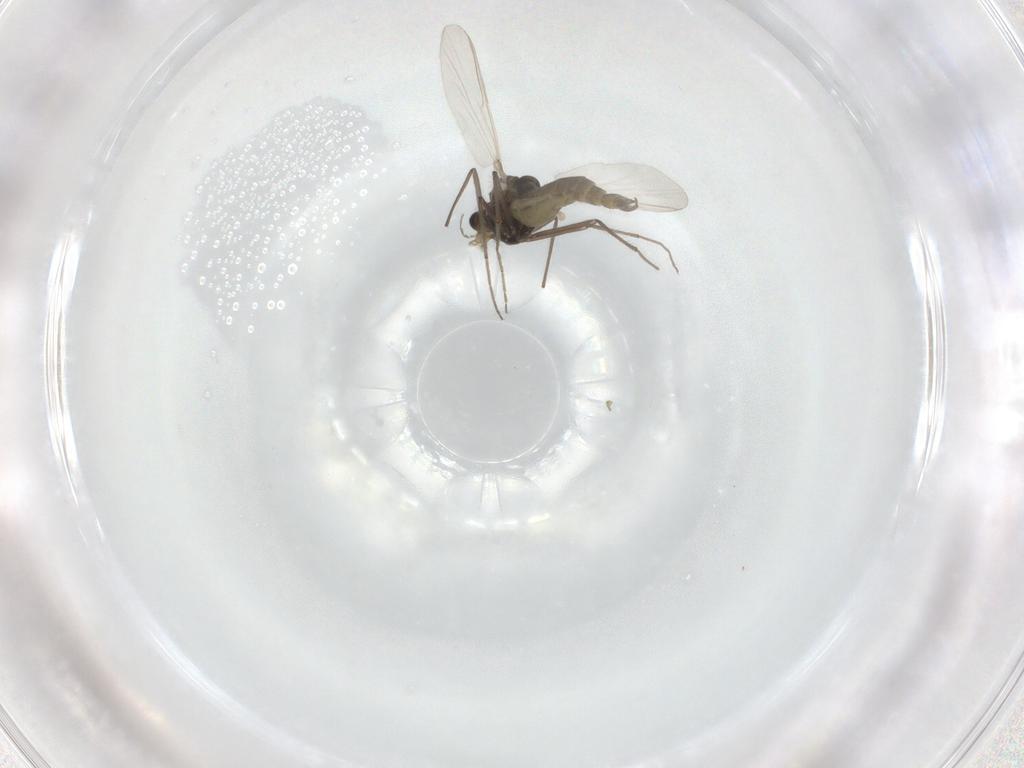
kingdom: Animalia
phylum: Arthropoda
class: Insecta
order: Diptera
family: Chironomidae
